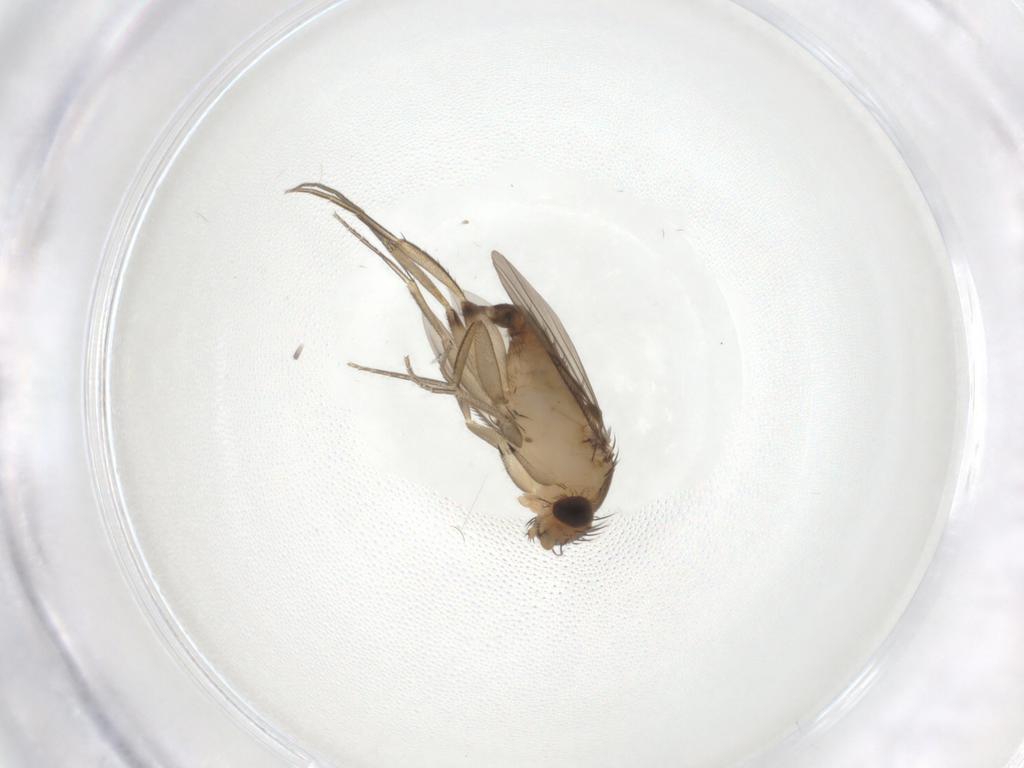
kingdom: Animalia
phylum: Arthropoda
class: Insecta
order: Diptera
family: Phoridae
